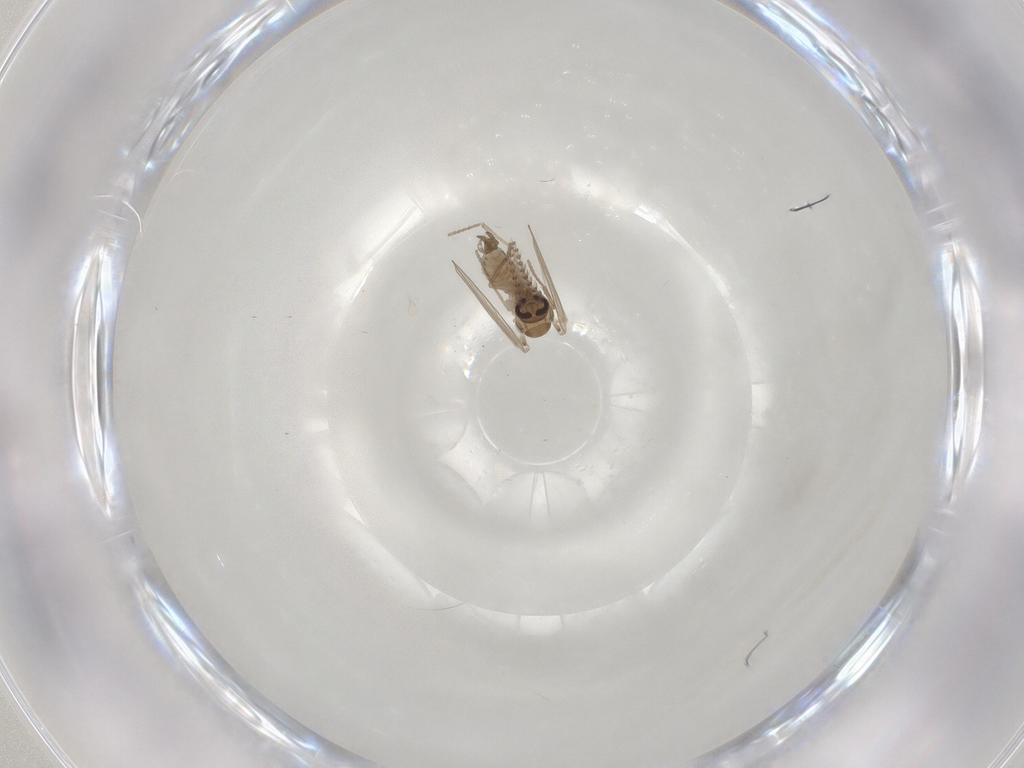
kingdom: Animalia
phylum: Arthropoda
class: Insecta
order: Diptera
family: Psychodidae
